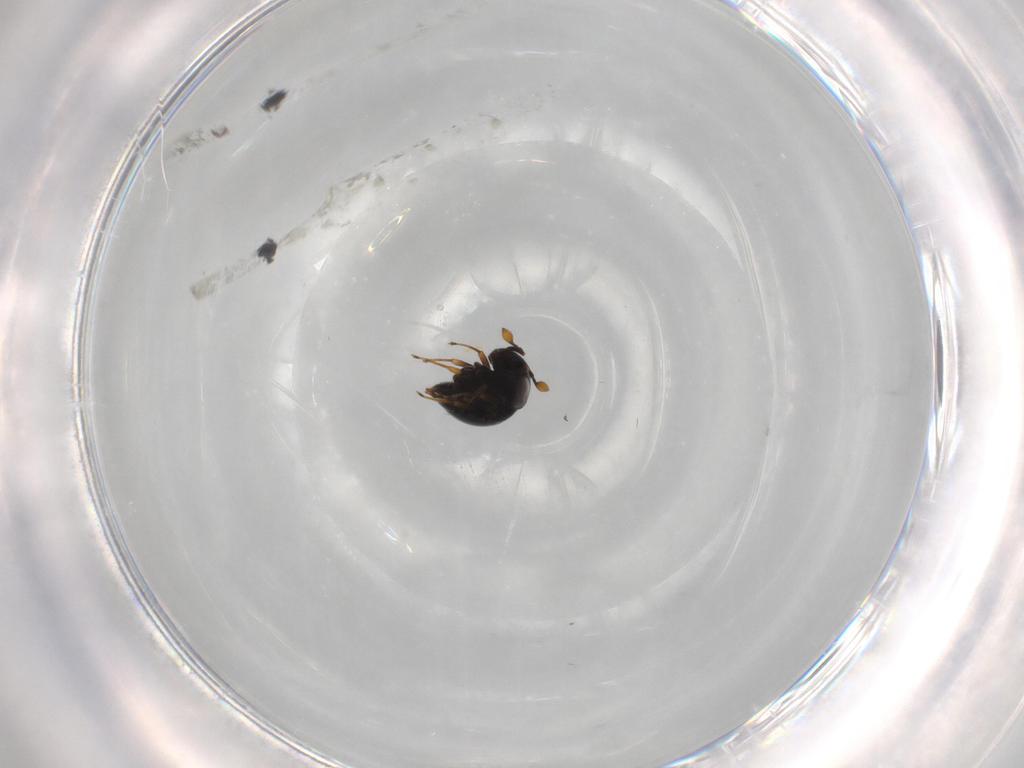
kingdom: Animalia
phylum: Arthropoda
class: Insecta
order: Hymenoptera
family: Scelionidae
